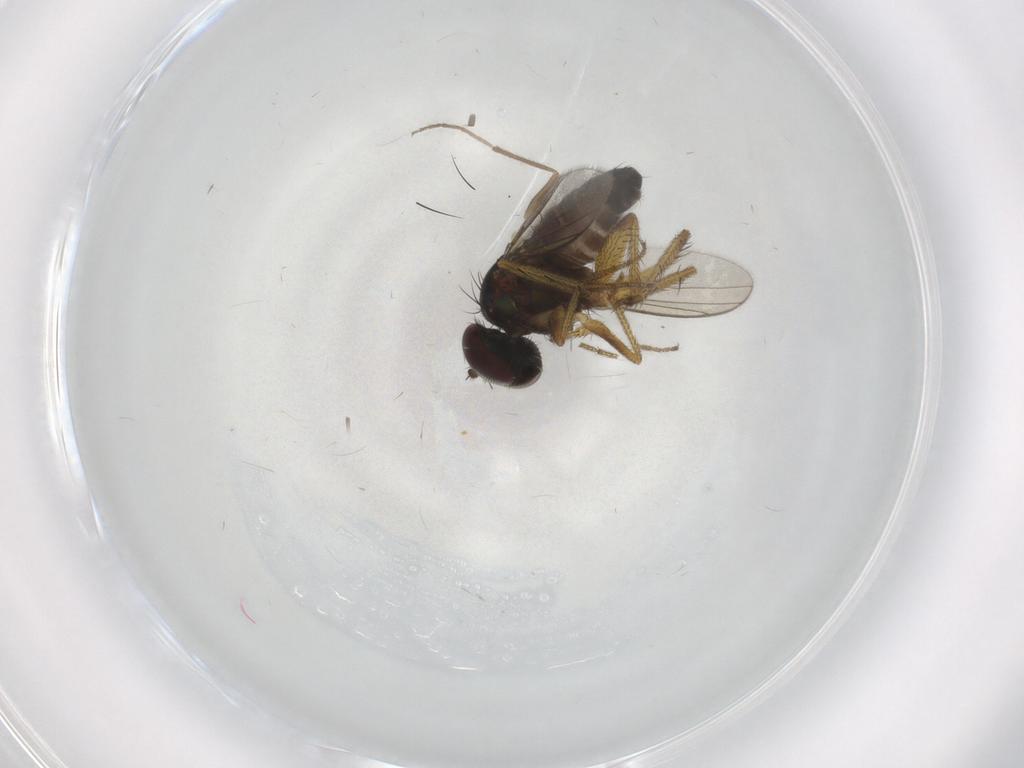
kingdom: Animalia
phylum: Arthropoda
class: Insecta
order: Diptera
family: Dolichopodidae
